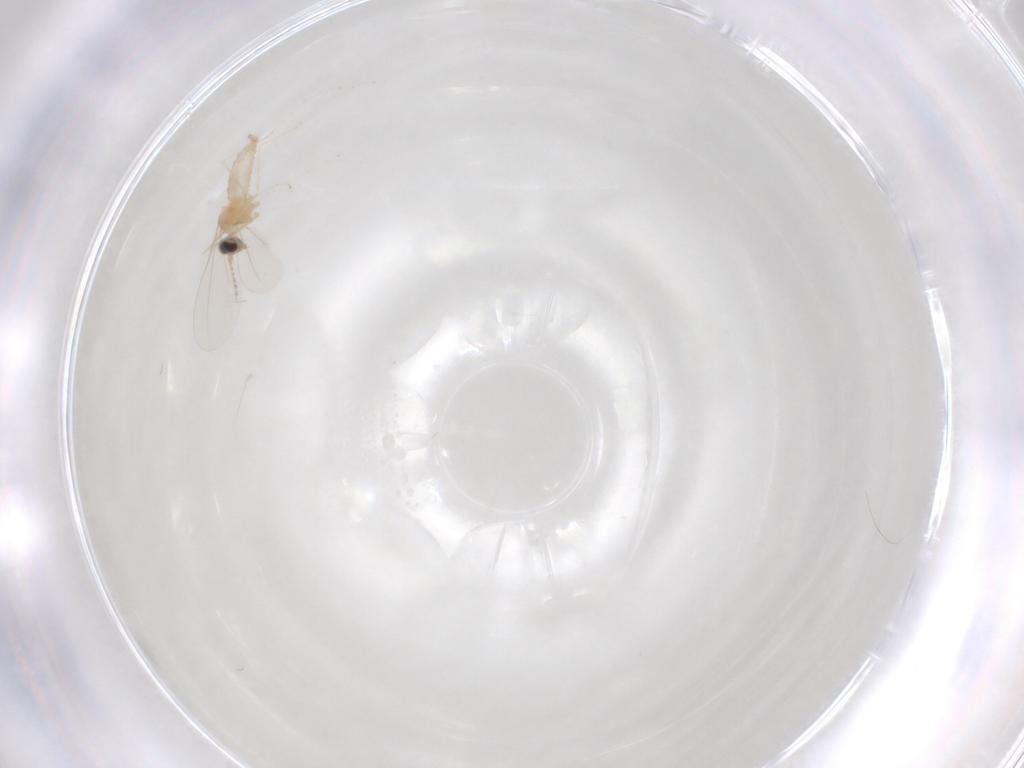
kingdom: Animalia
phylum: Arthropoda
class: Insecta
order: Diptera
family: Cecidomyiidae
